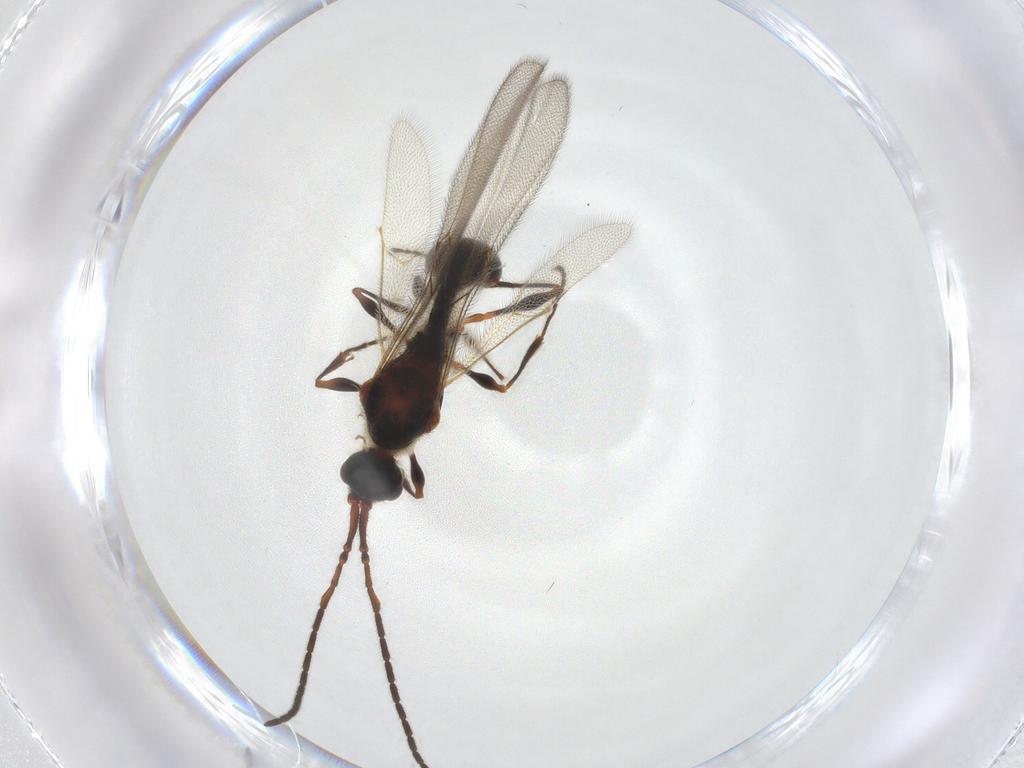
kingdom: Animalia
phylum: Arthropoda
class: Insecta
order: Hymenoptera
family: Diapriidae
